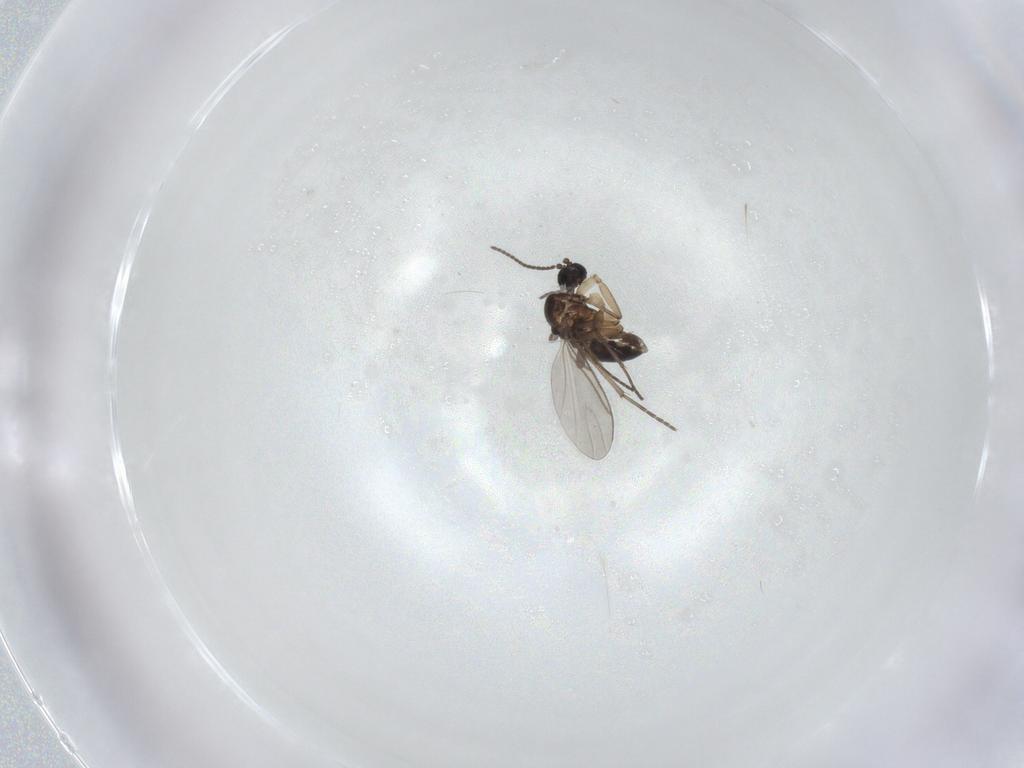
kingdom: Animalia
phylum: Arthropoda
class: Insecta
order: Diptera
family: Sciaridae
